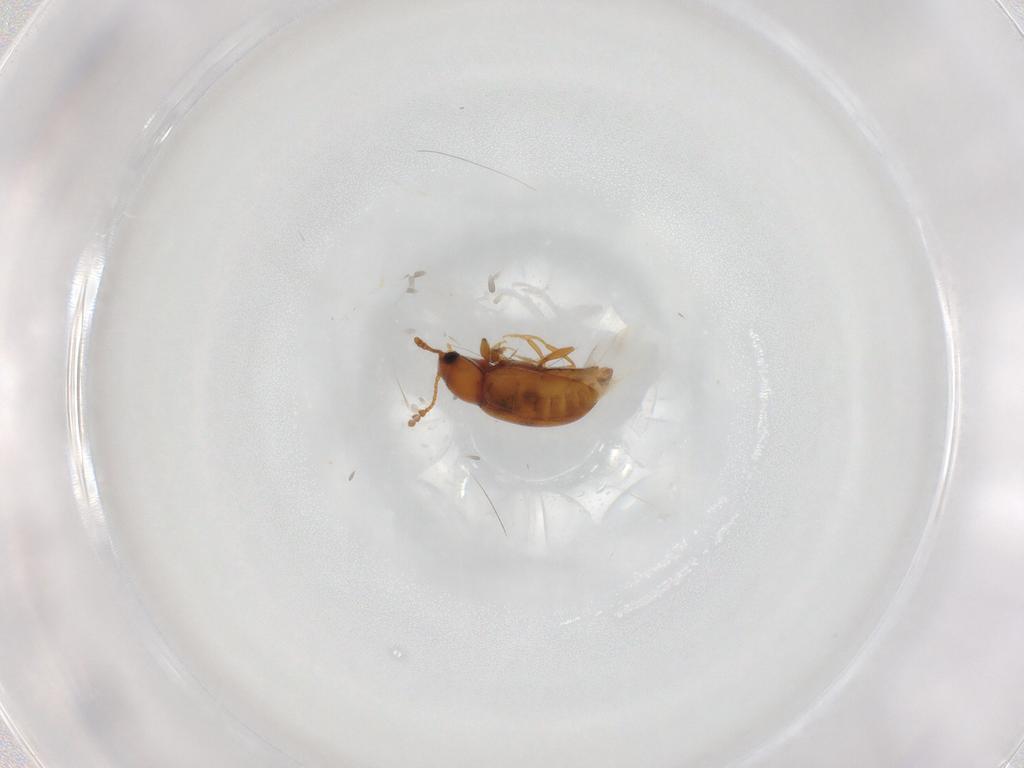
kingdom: Animalia
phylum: Arthropoda
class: Insecta
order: Coleoptera
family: Erotylidae
